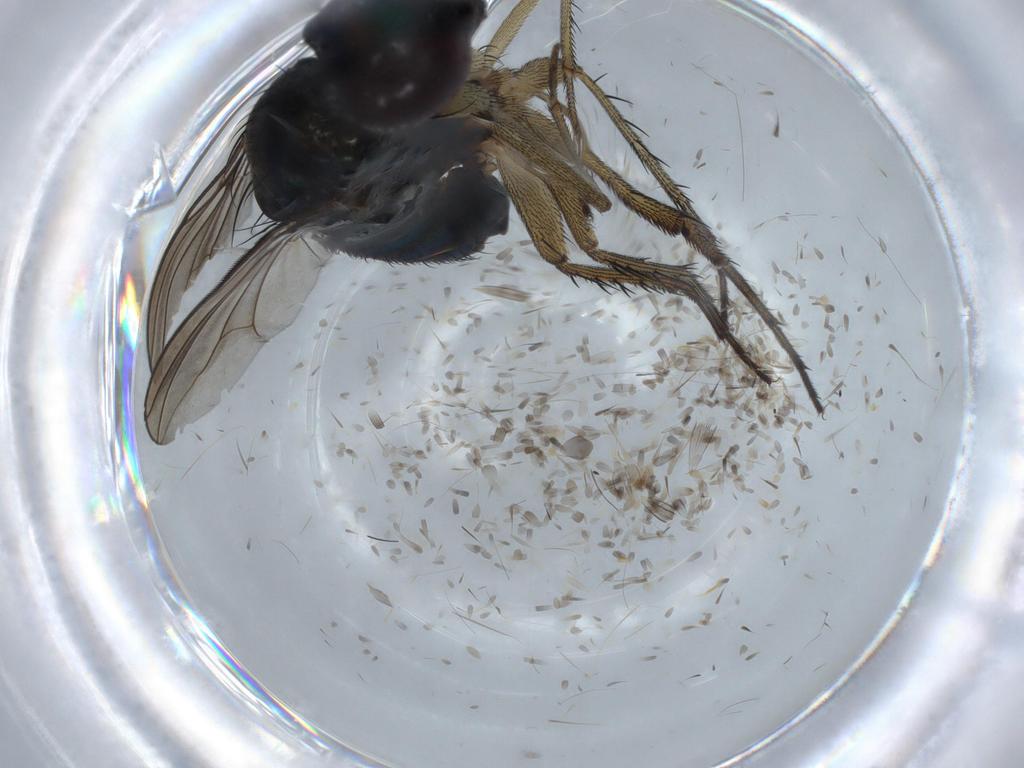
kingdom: Animalia
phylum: Arthropoda
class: Insecta
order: Diptera
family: Dolichopodidae
